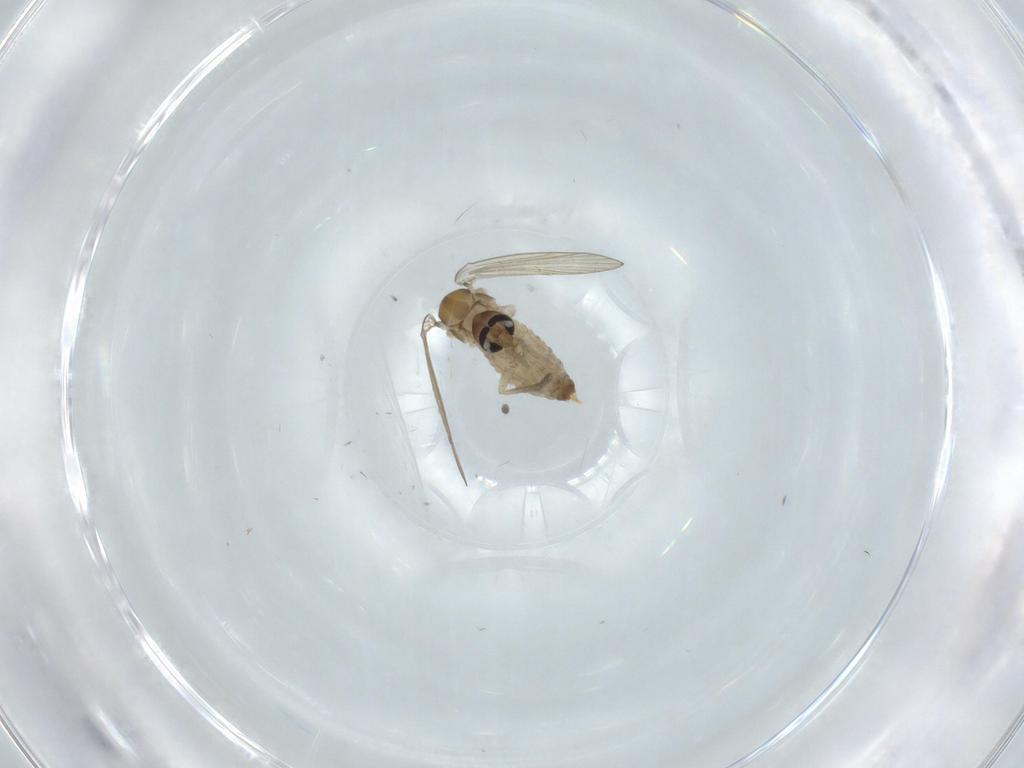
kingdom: Animalia
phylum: Arthropoda
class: Insecta
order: Diptera
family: Psychodidae
